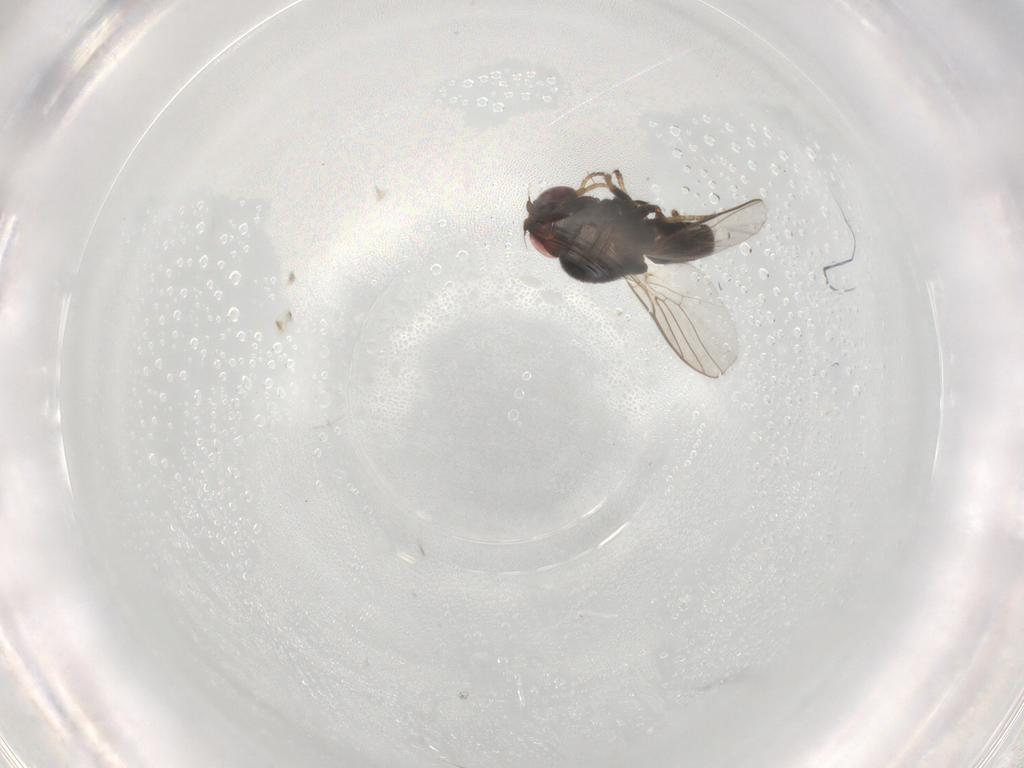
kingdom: Animalia
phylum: Arthropoda
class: Insecta
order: Diptera
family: Chloropidae
